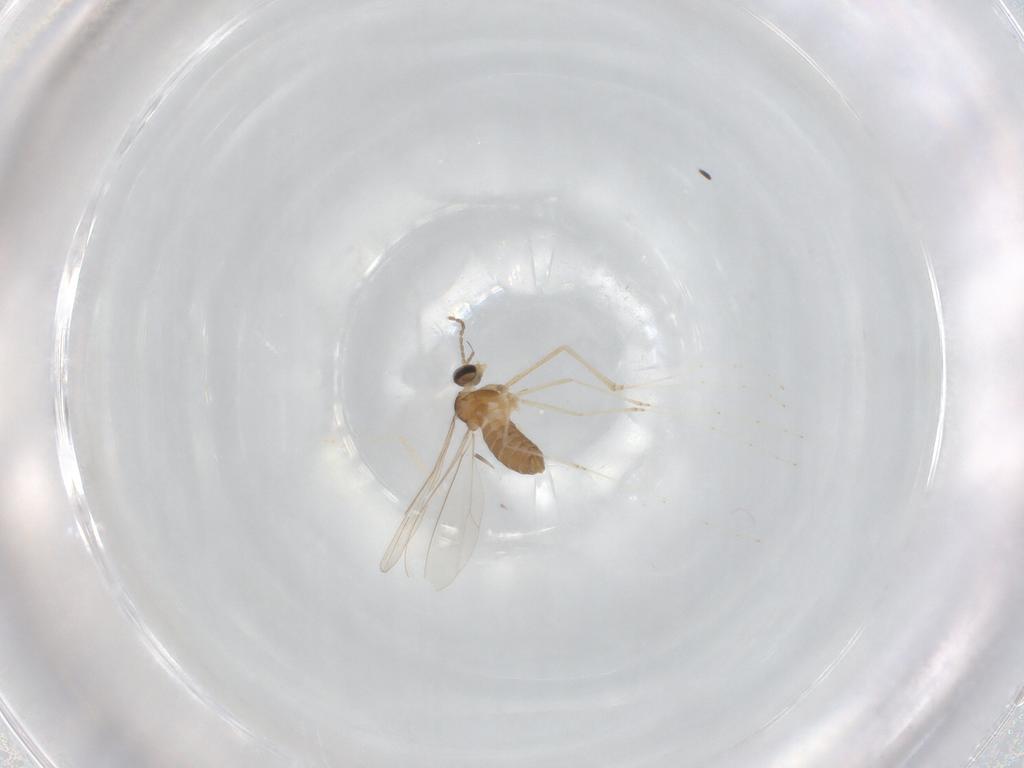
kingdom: Animalia
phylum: Arthropoda
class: Insecta
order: Diptera
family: Cecidomyiidae
